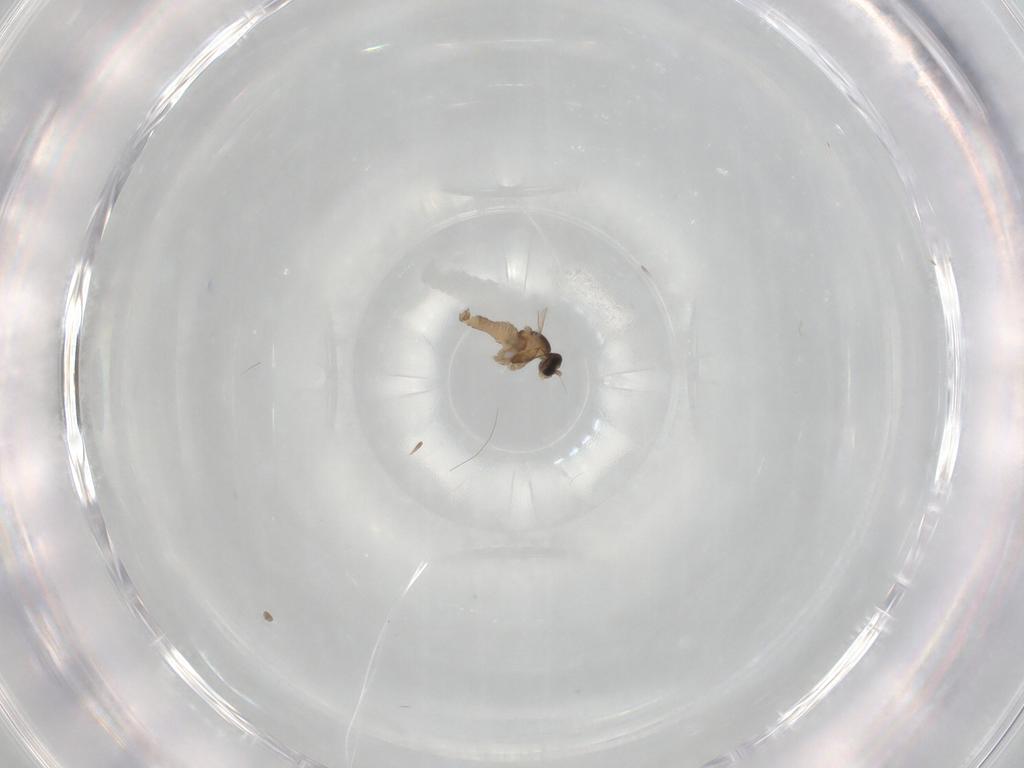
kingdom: Animalia
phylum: Arthropoda
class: Insecta
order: Diptera
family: Cecidomyiidae
